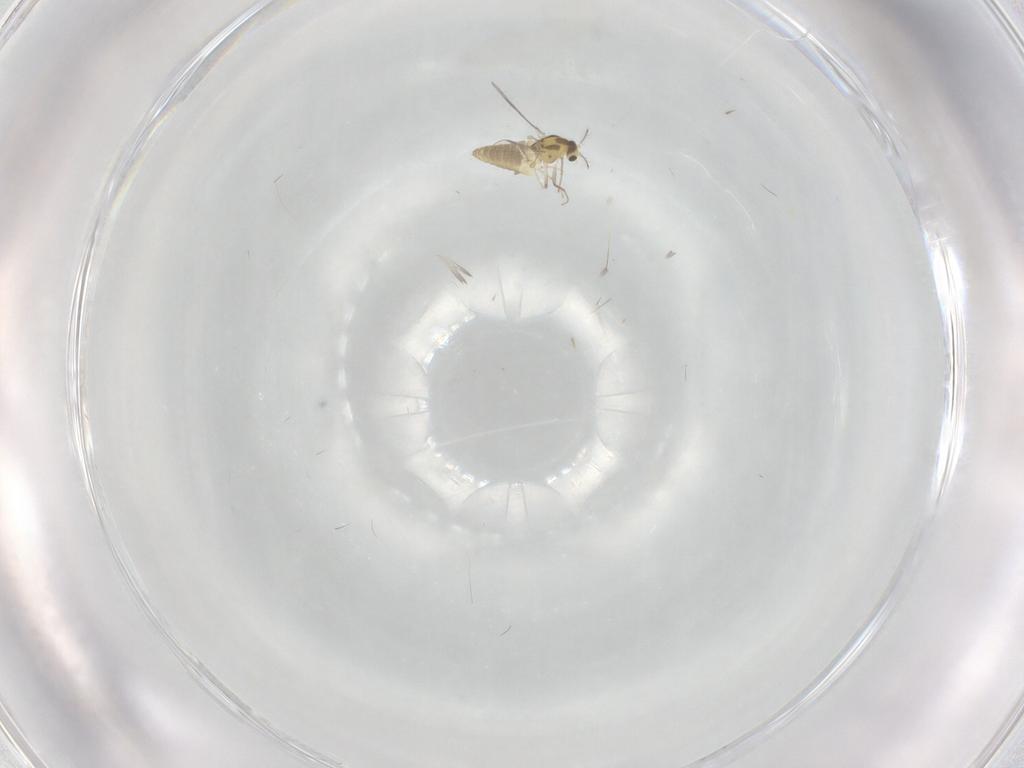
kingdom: Animalia
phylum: Arthropoda
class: Insecta
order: Diptera
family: Chironomidae
